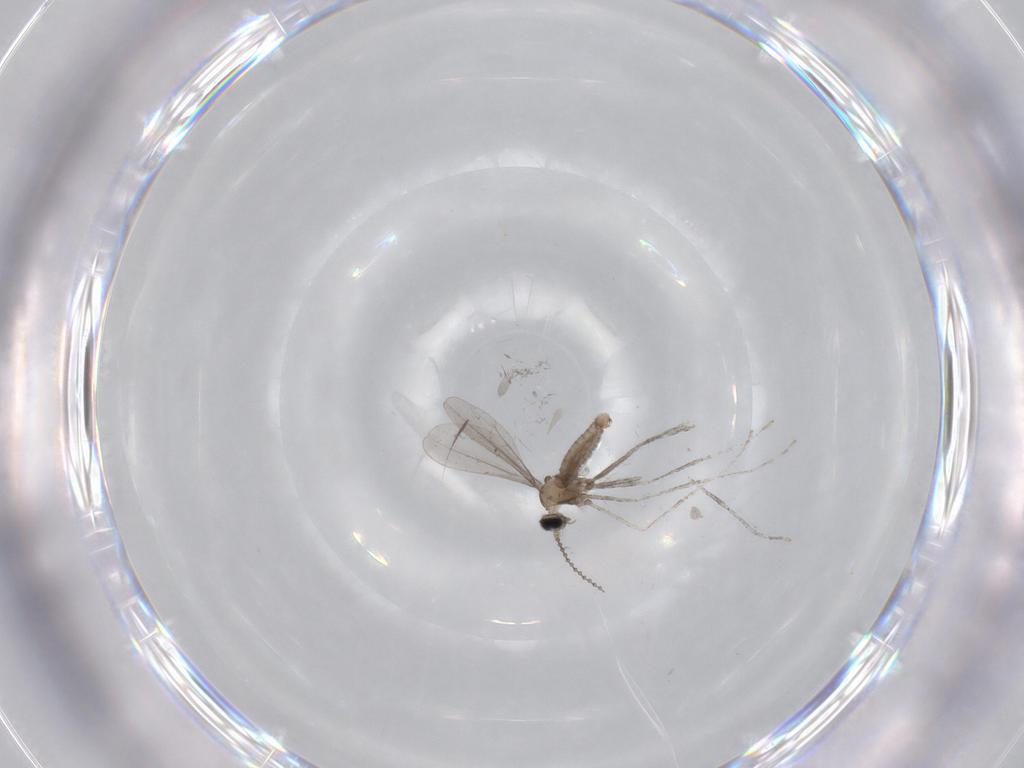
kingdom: Animalia
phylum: Arthropoda
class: Insecta
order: Diptera
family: Cecidomyiidae
